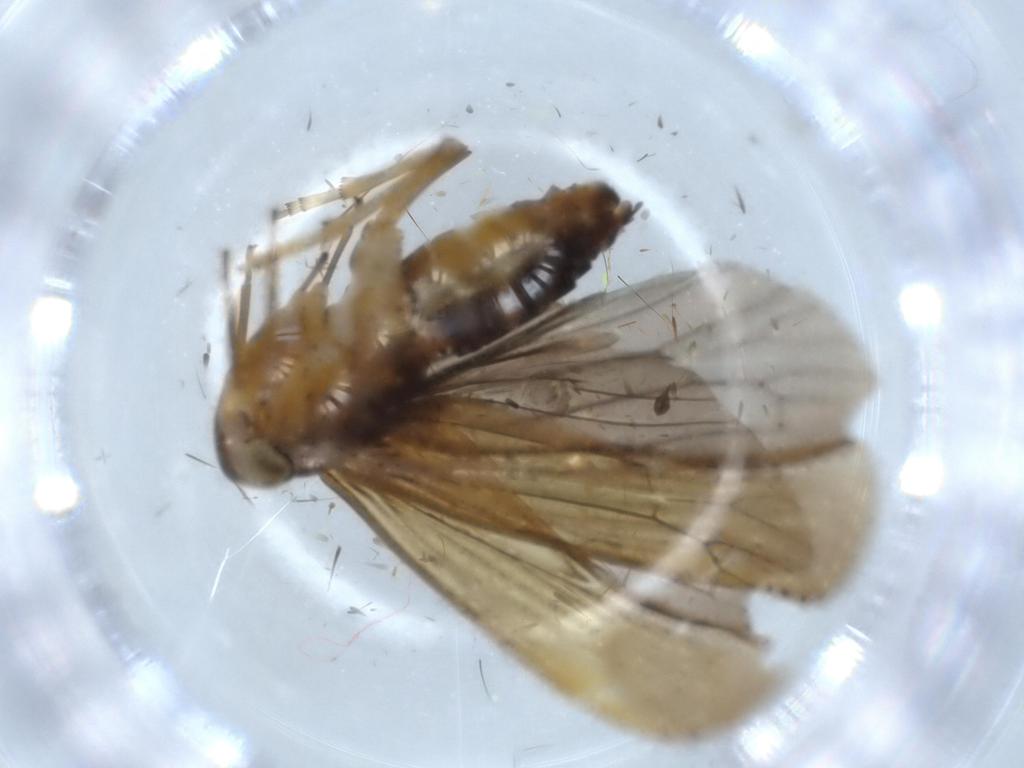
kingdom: Animalia
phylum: Arthropoda
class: Insecta
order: Hemiptera
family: Achilidae
